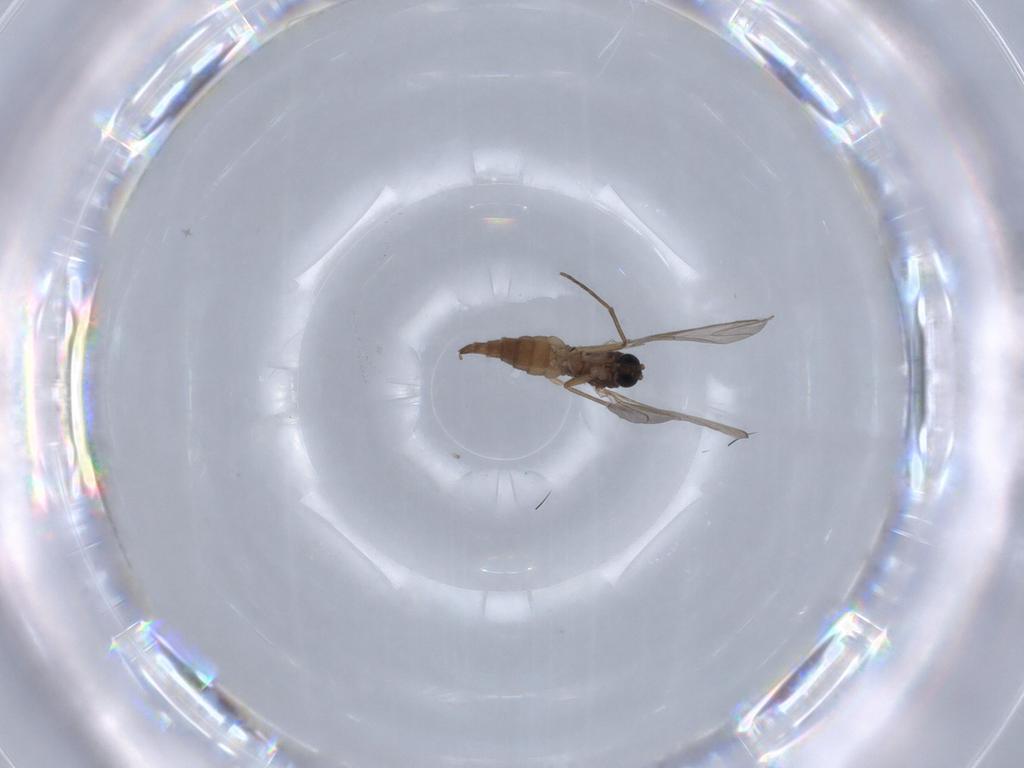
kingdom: Animalia
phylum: Arthropoda
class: Insecta
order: Diptera
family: Sciaridae
